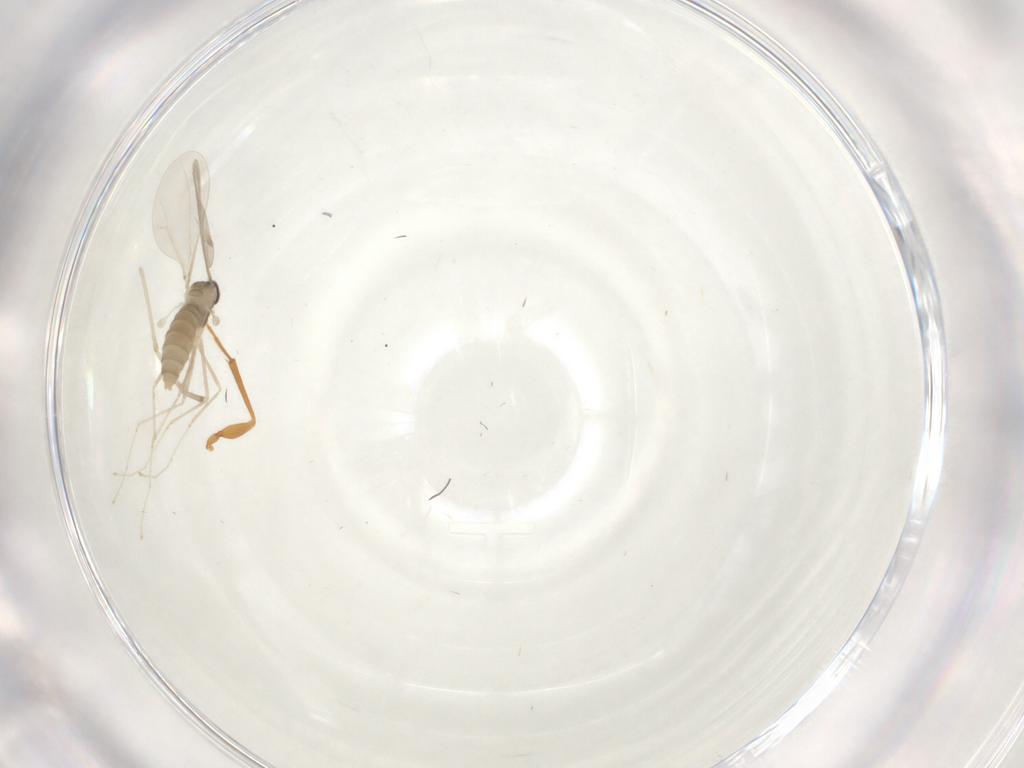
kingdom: Animalia
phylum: Arthropoda
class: Insecta
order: Diptera
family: Cecidomyiidae
